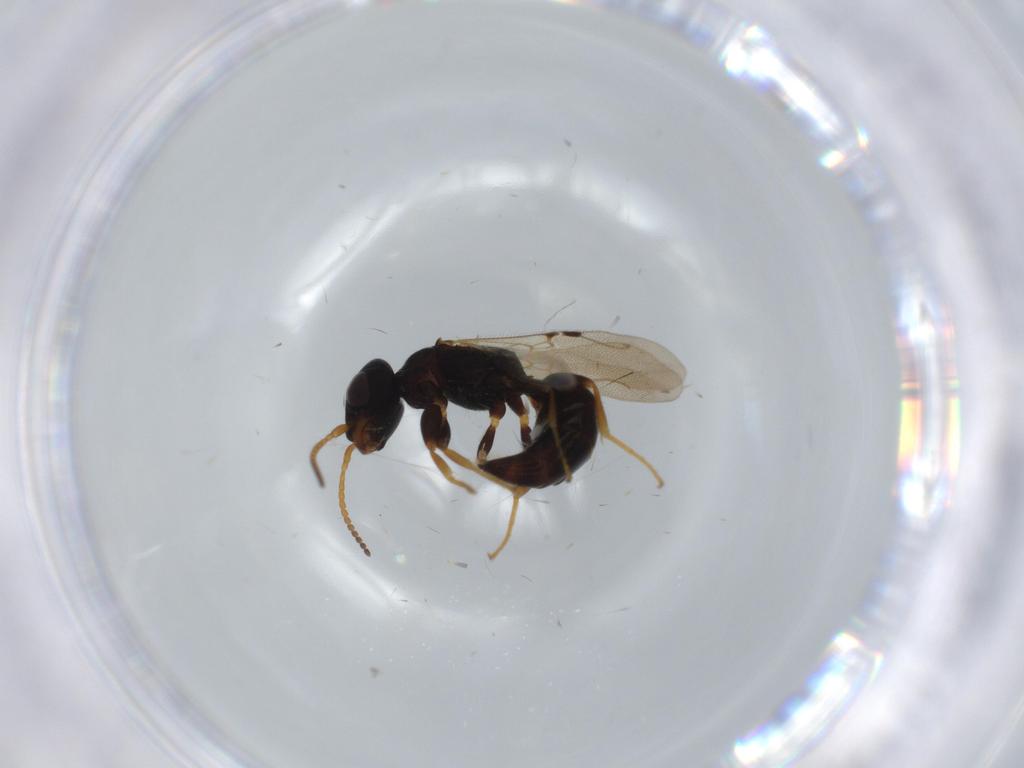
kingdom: Animalia
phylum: Arthropoda
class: Insecta
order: Hymenoptera
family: Bethylidae
